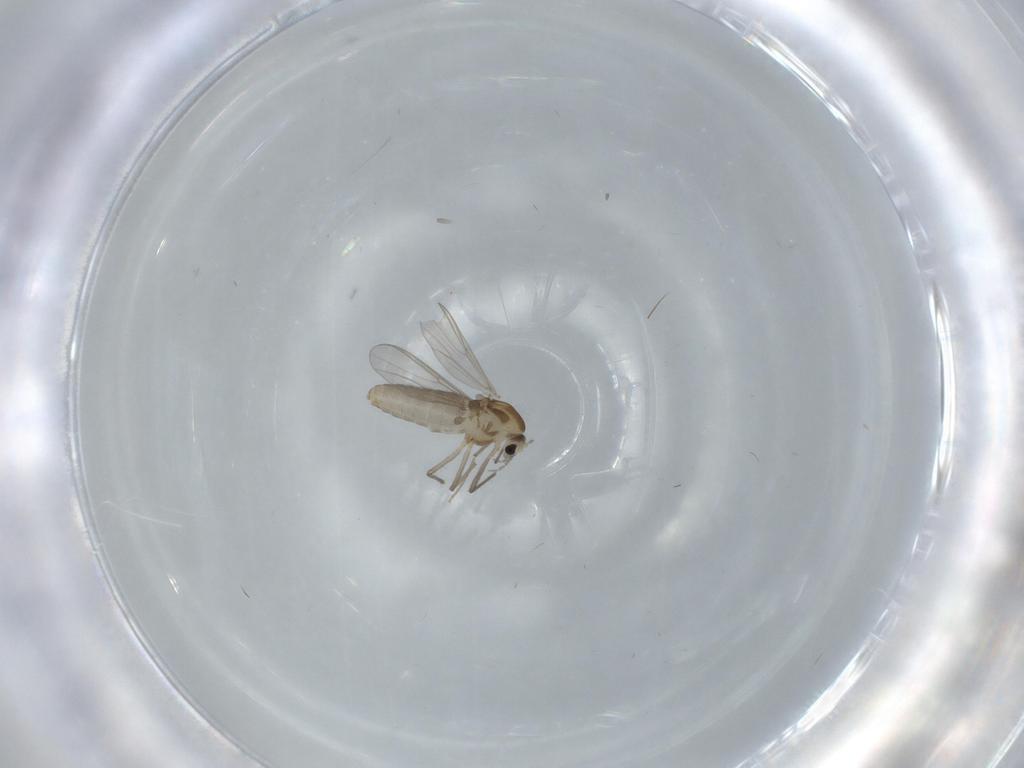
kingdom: Animalia
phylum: Arthropoda
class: Insecta
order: Diptera
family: Chironomidae
